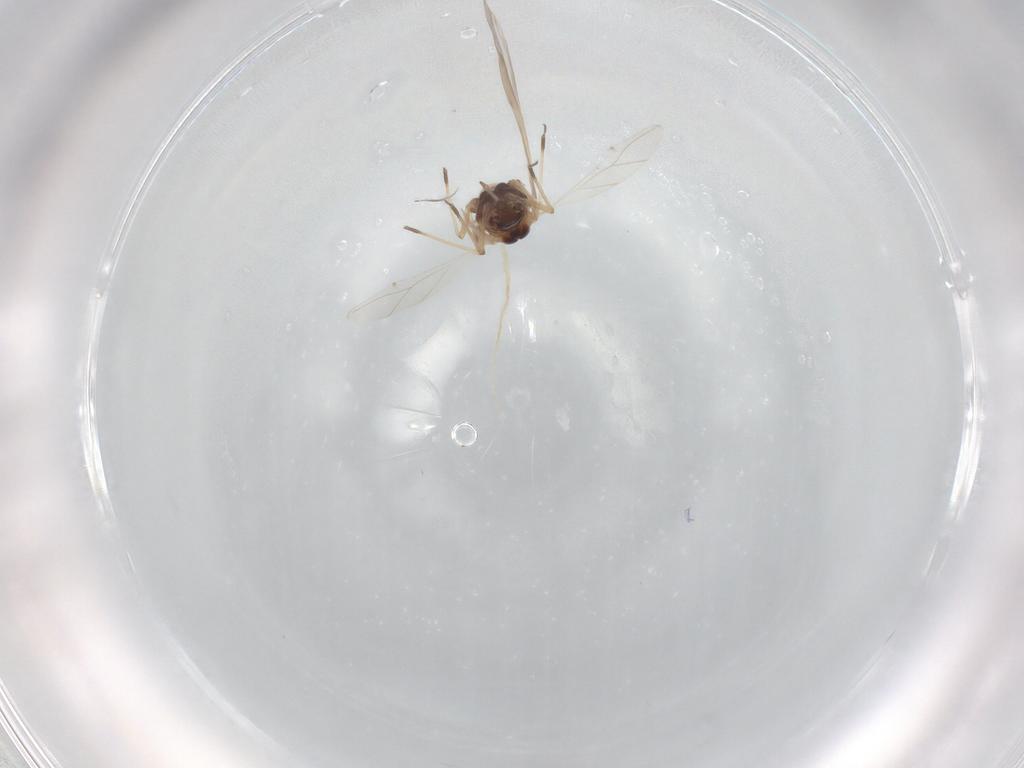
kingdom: Animalia
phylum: Arthropoda
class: Insecta
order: Hemiptera
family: Aphididae
